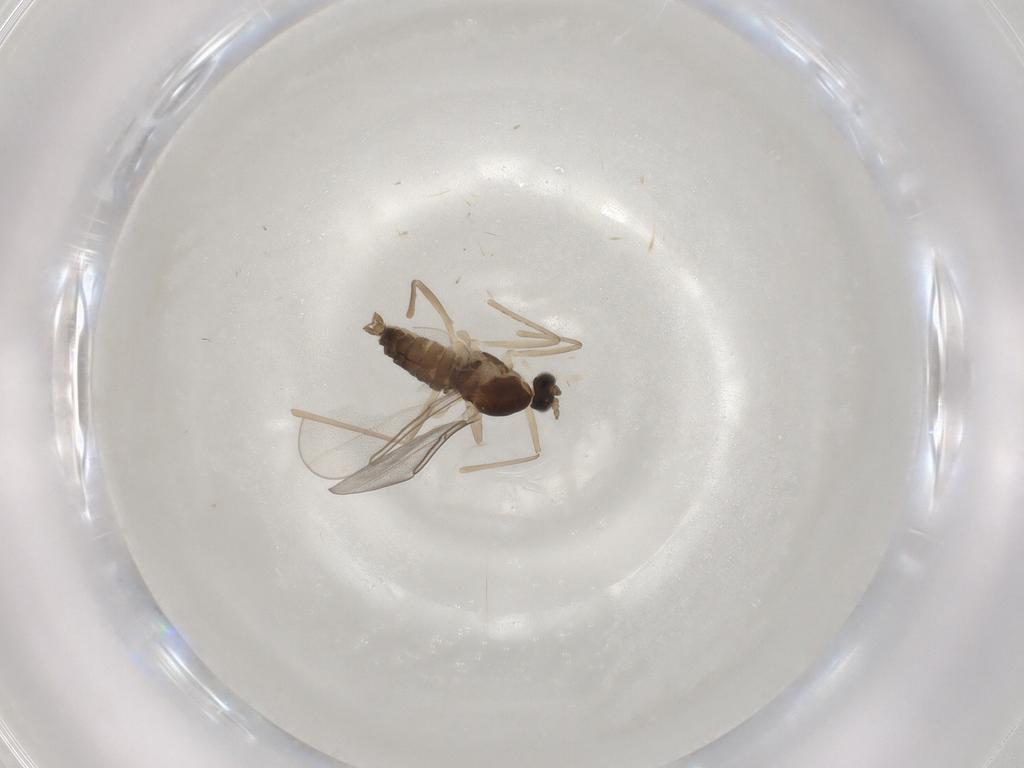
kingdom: Animalia
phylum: Arthropoda
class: Insecta
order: Diptera
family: Cecidomyiidae
